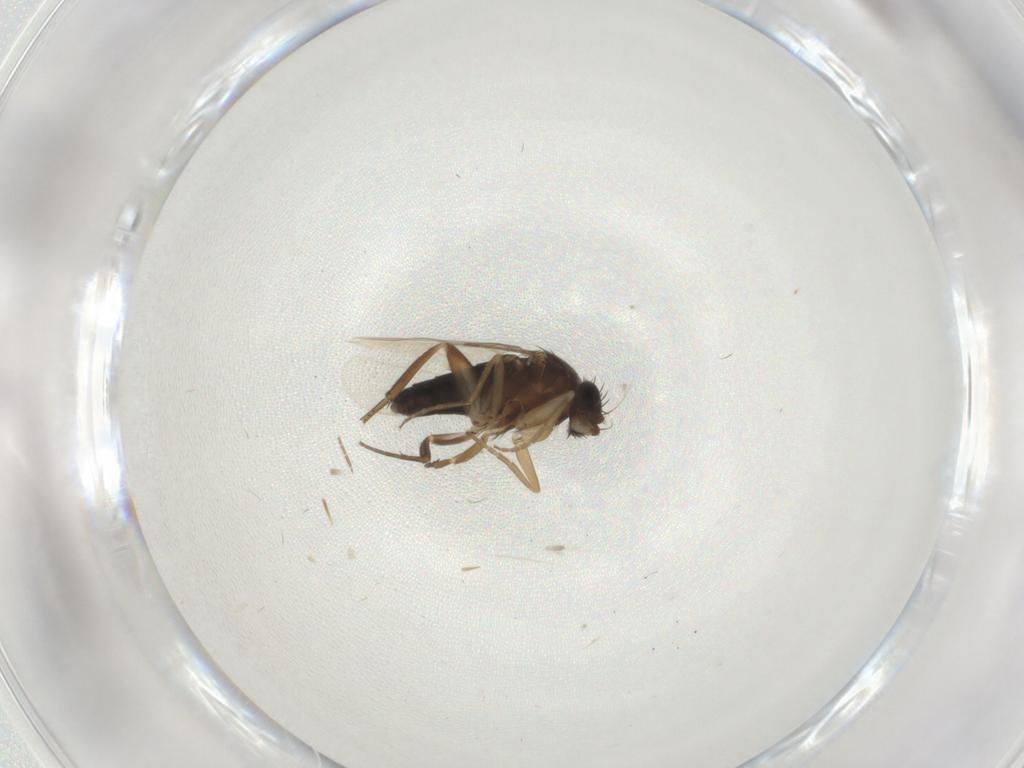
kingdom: Animalia
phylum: Arthropoda
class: Insecta
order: Diptera
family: Phoridae
